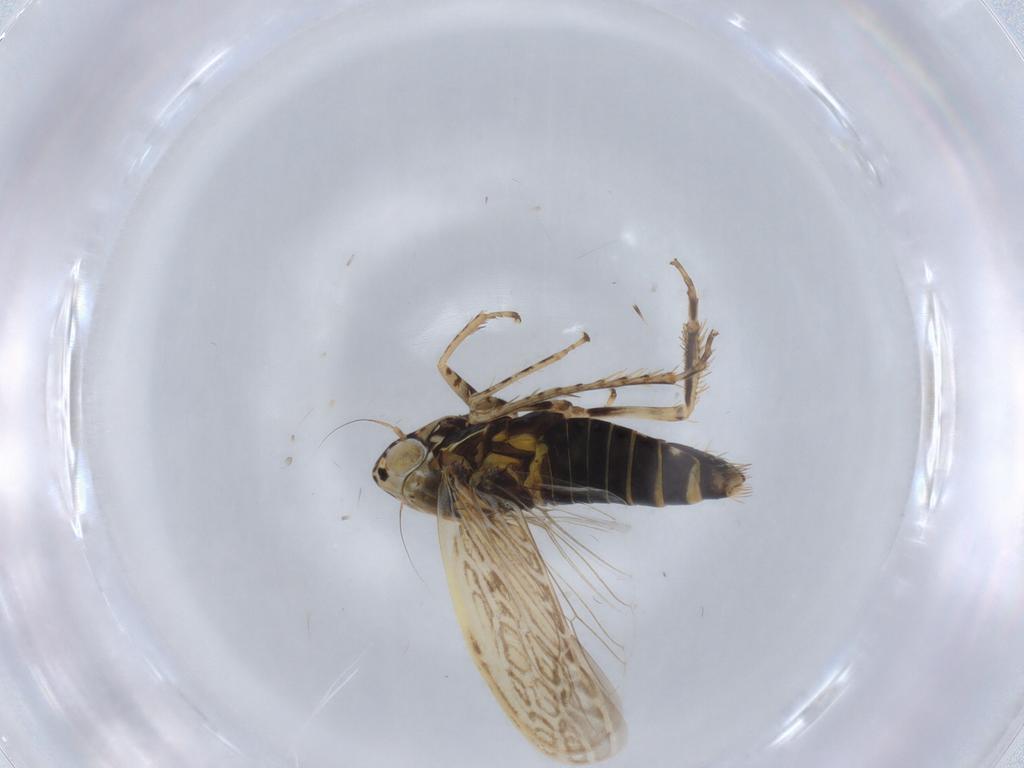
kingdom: Animalia
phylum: Arthropoda
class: Insecta
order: Hemiptera
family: Cicadellidae
